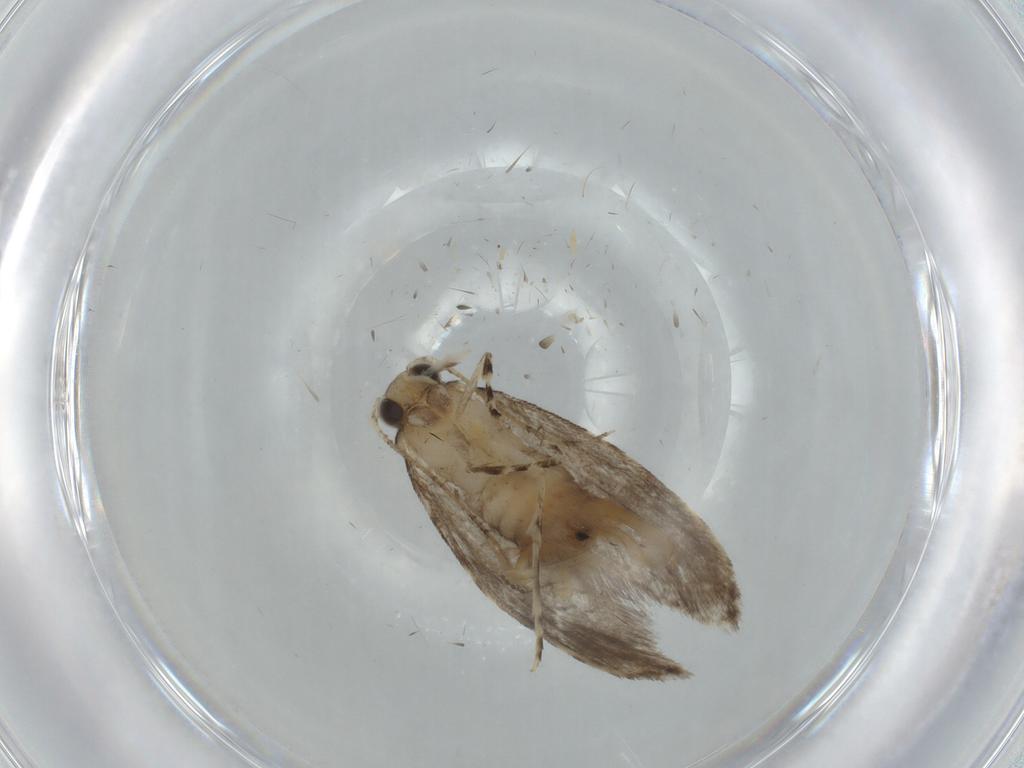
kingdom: Animalia
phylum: Arthropoda
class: Insecta
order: Lepidoptera
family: Tineidae
